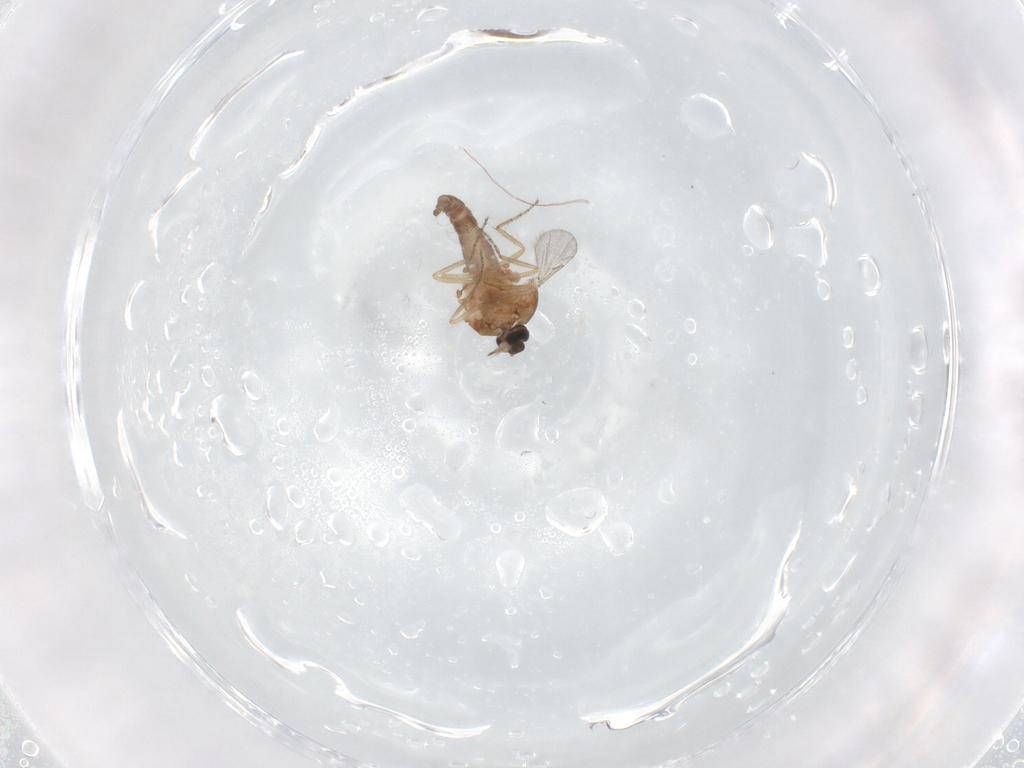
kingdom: Animalia
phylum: Arthropoda
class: Insecta
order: Diptera
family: Ceratopogonidae
